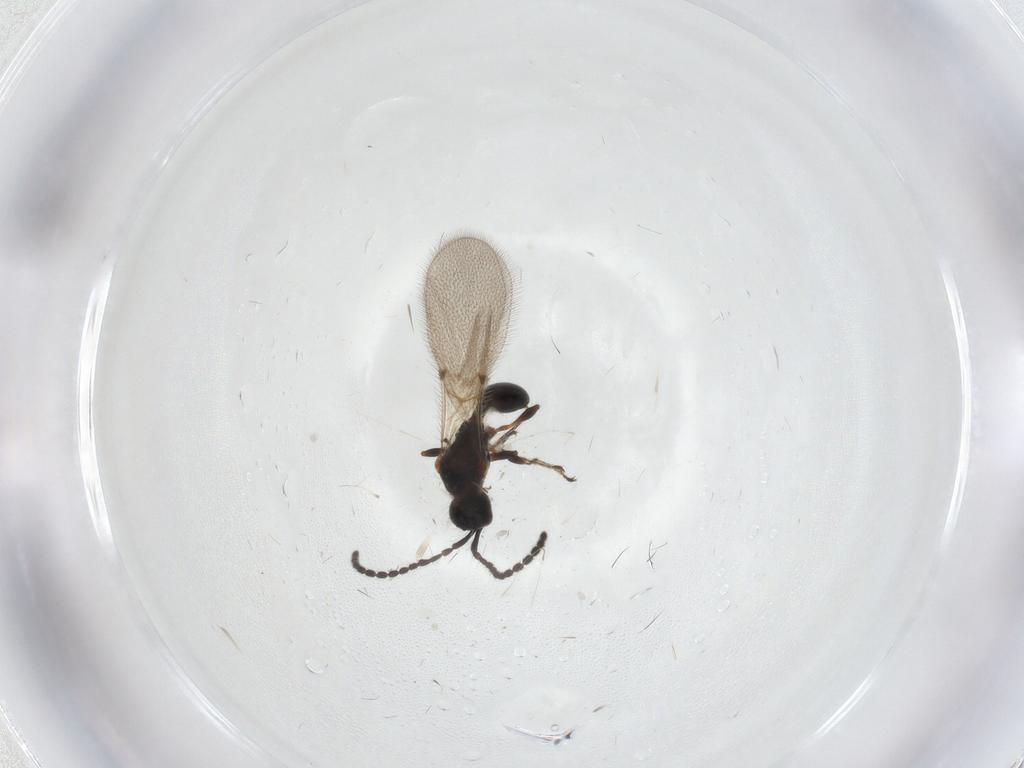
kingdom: Animalia
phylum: Arthropoda
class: Insecta
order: Hymenoptera
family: Diapriidae
